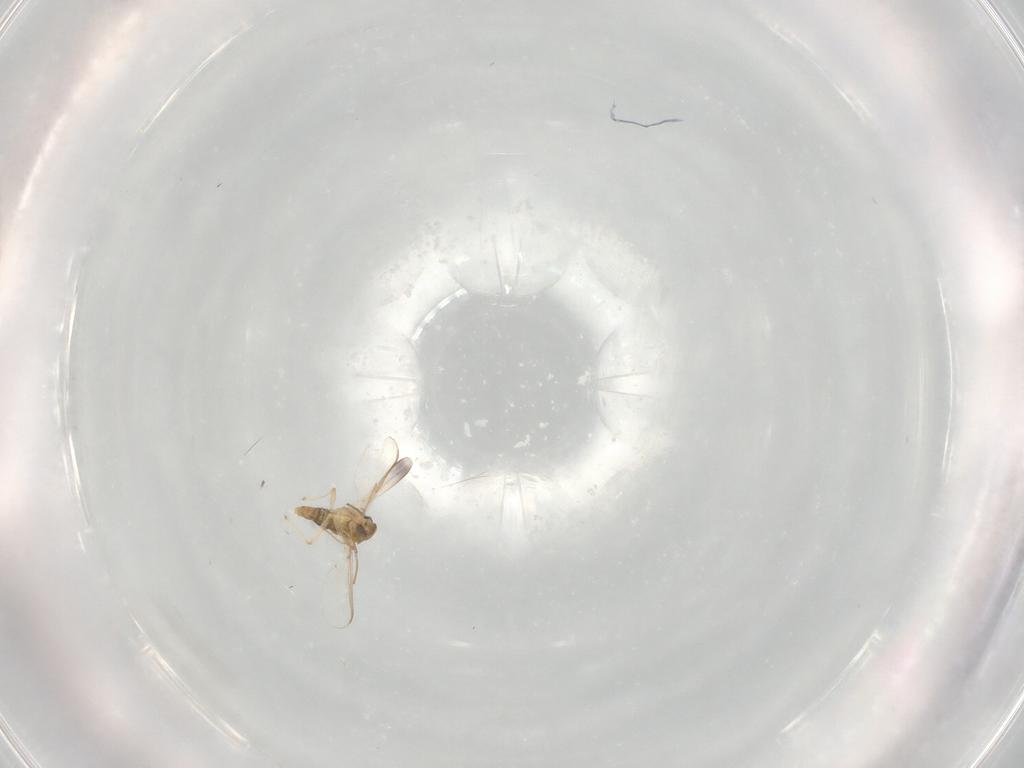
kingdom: Animalia
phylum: Arthropoda
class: Insecta
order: Diptera
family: Chironomidae
